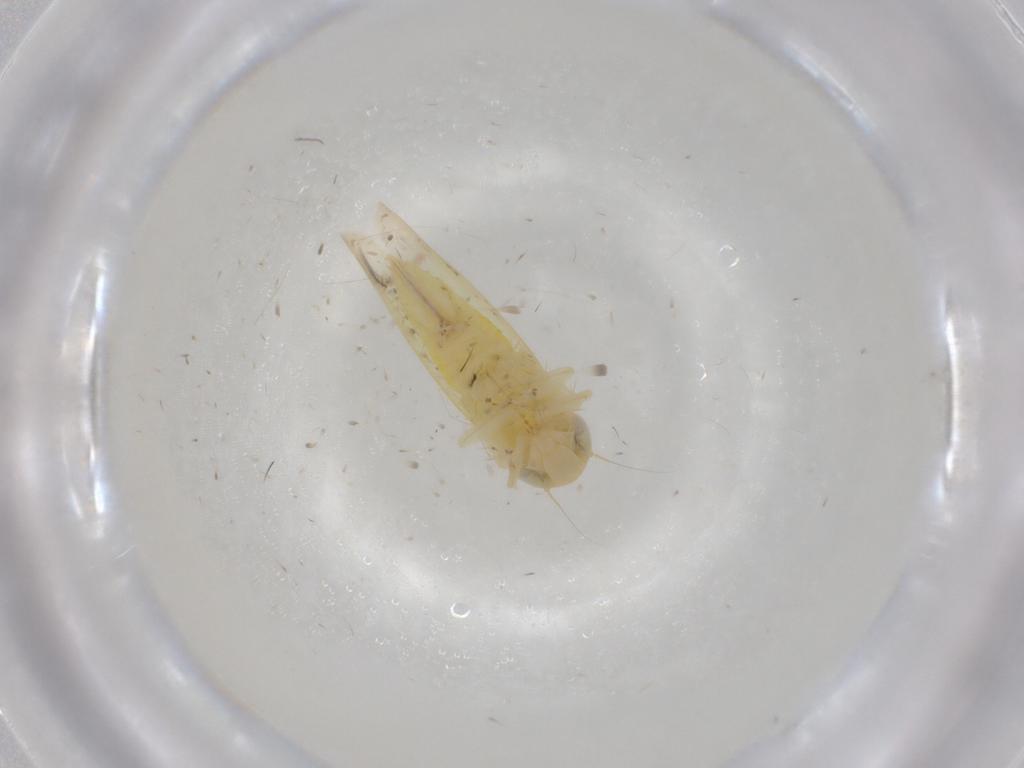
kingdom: Animalia
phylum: Arthropoda
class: Insecta
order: Hemiptera
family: Cicadellidae
